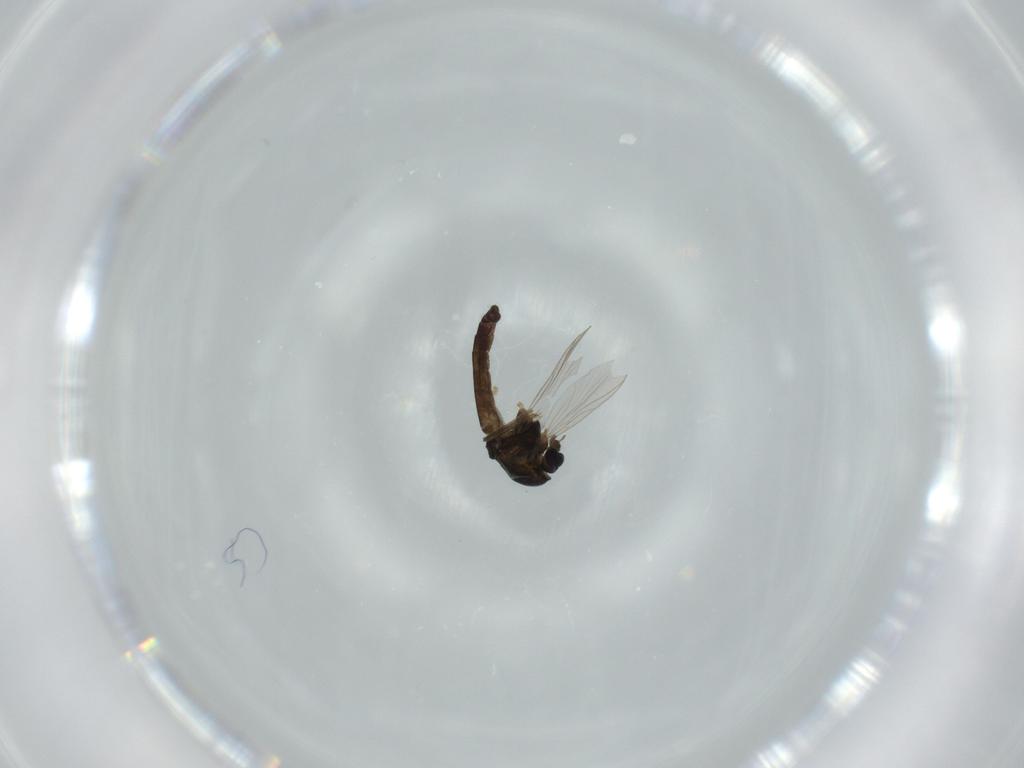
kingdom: Animalia
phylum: Arthropoda
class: Insecta
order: Diptera
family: Chironomidae
